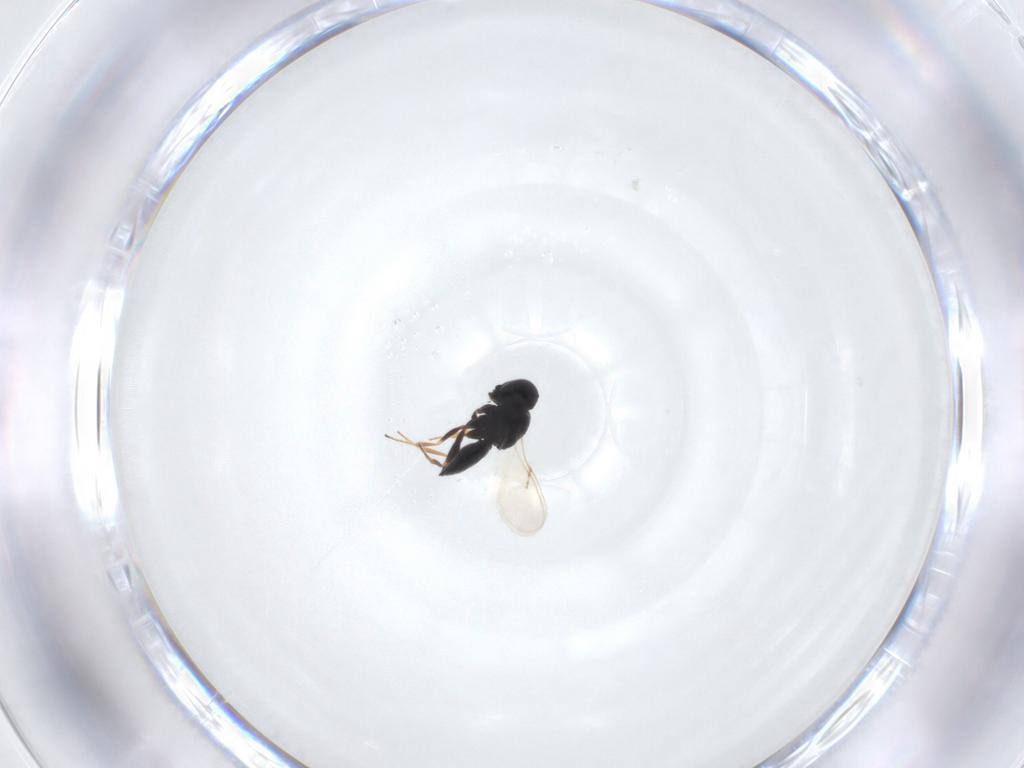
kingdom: Animalia
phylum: Arthropoda
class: Insecta
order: Hymenoptera
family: Scelionidae
